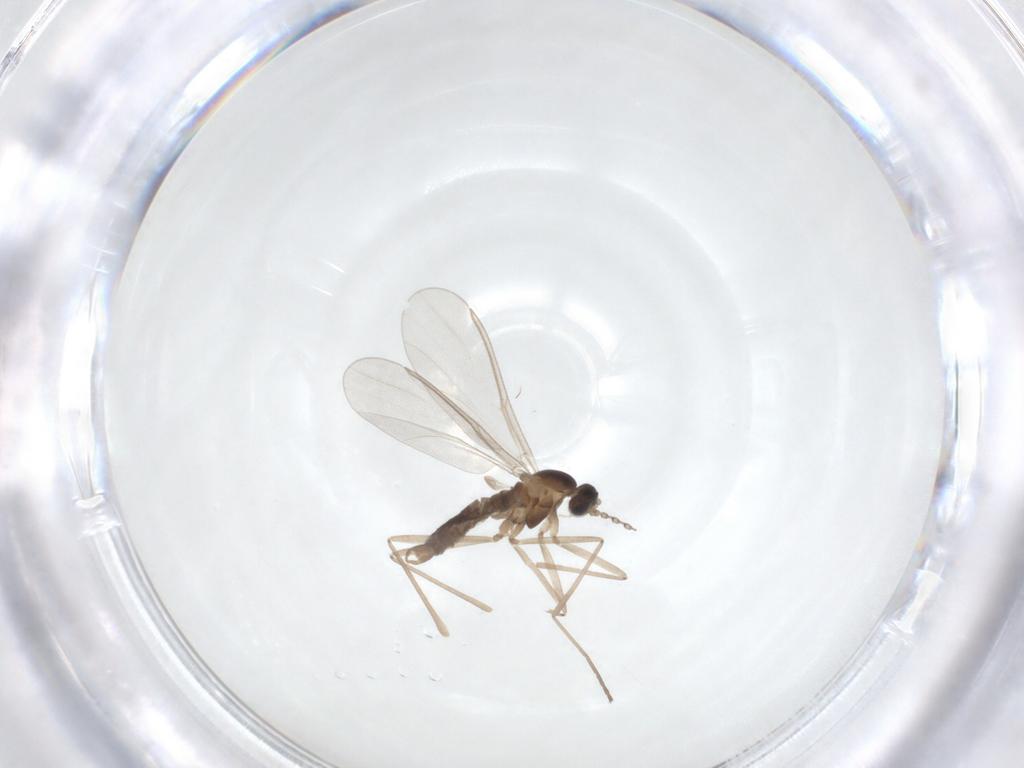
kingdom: Animalia
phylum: Arthropoda
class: Insecta
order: Diptera
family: Cecidomyiidae
